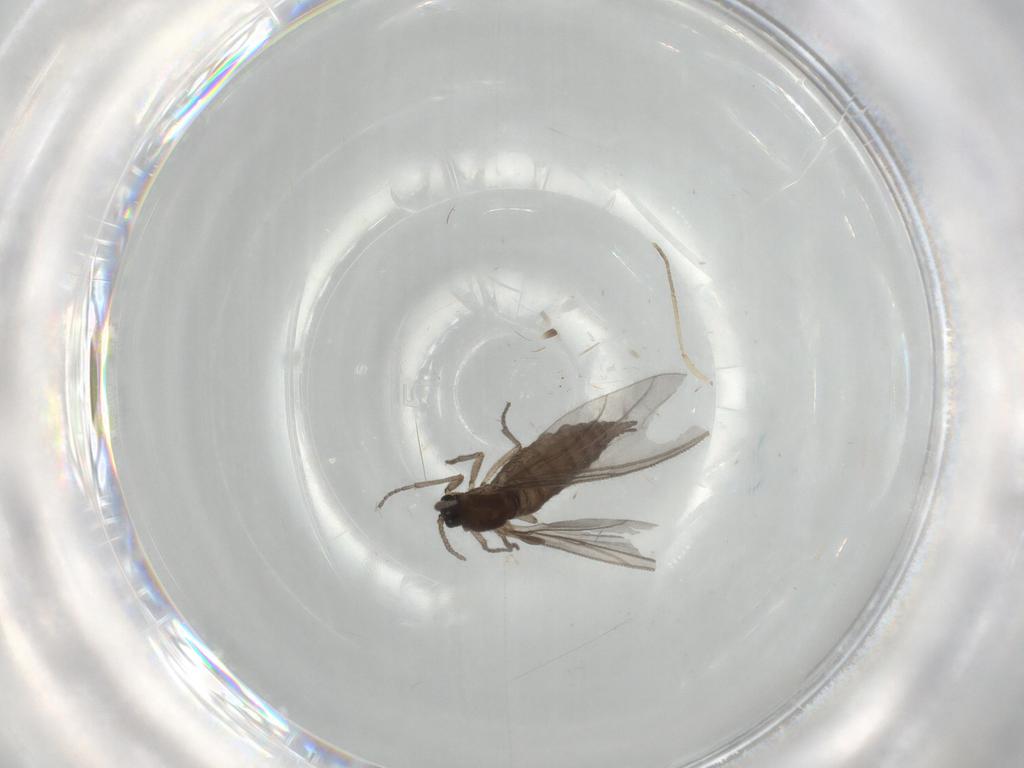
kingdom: Animalia
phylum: Arthropoda
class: Insecta
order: Diptera
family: Sciaridae
